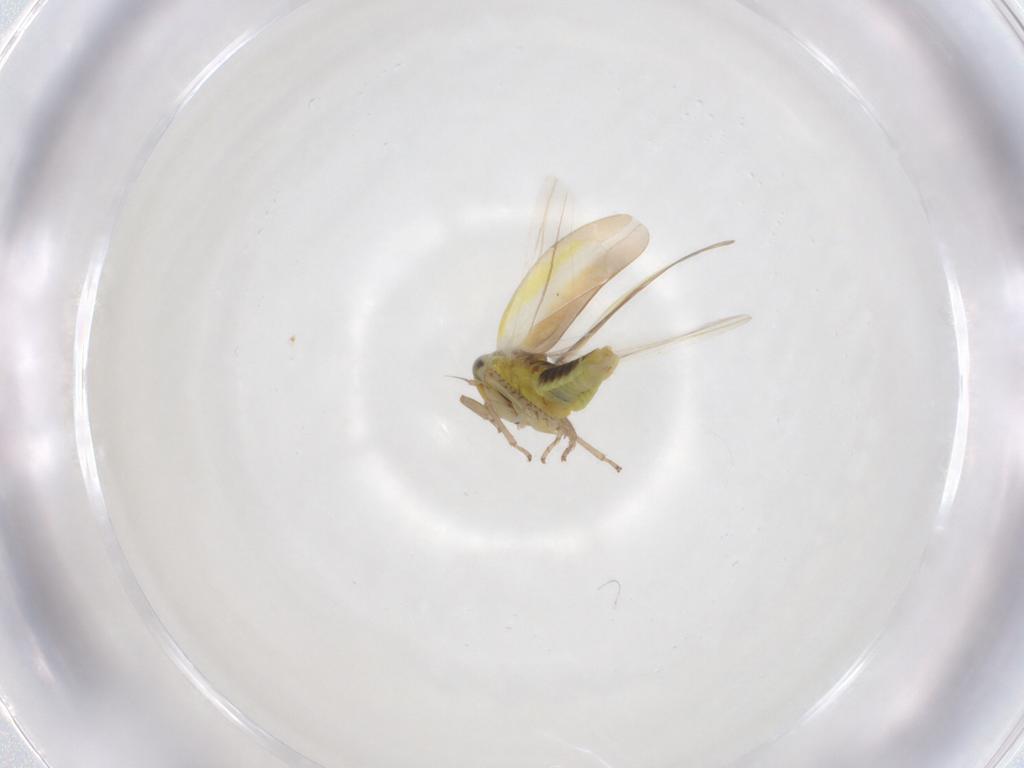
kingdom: Animalia
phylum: Arthropoda
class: Insecta
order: Hemiptera
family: Cicadellidae
